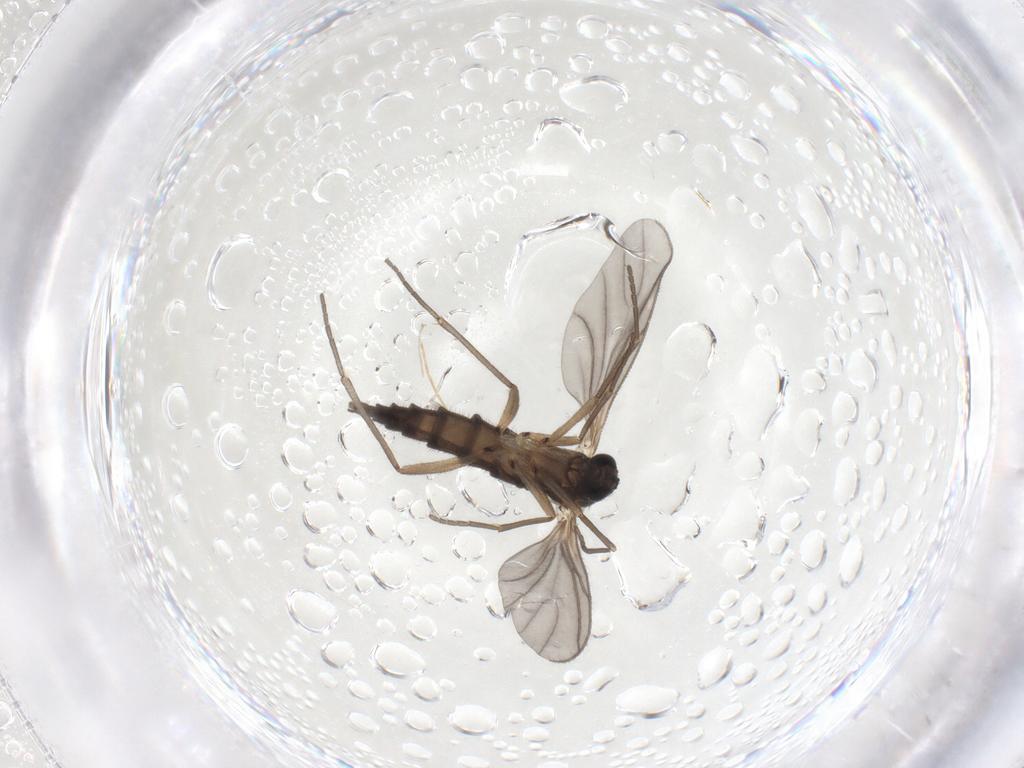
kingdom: Animalia
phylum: Arthropoda
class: Insecta
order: Diptera
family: Sciaridae
